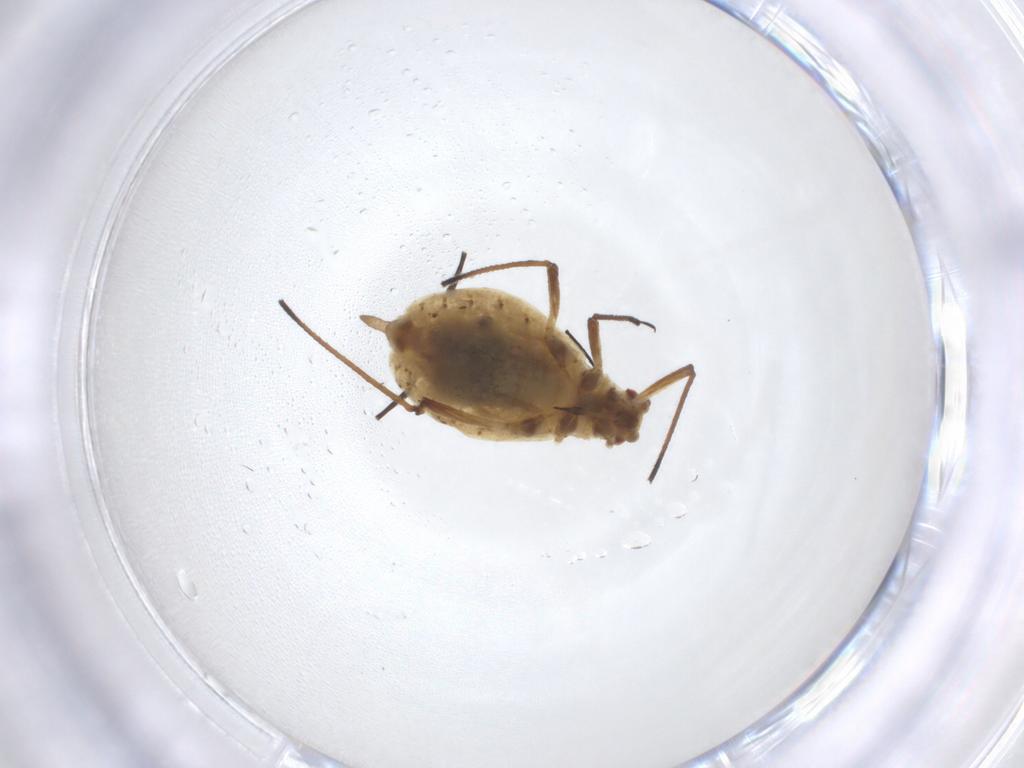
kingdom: Animalia
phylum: Arthropoda
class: Insecta
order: Hemiptera
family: Aphididae
